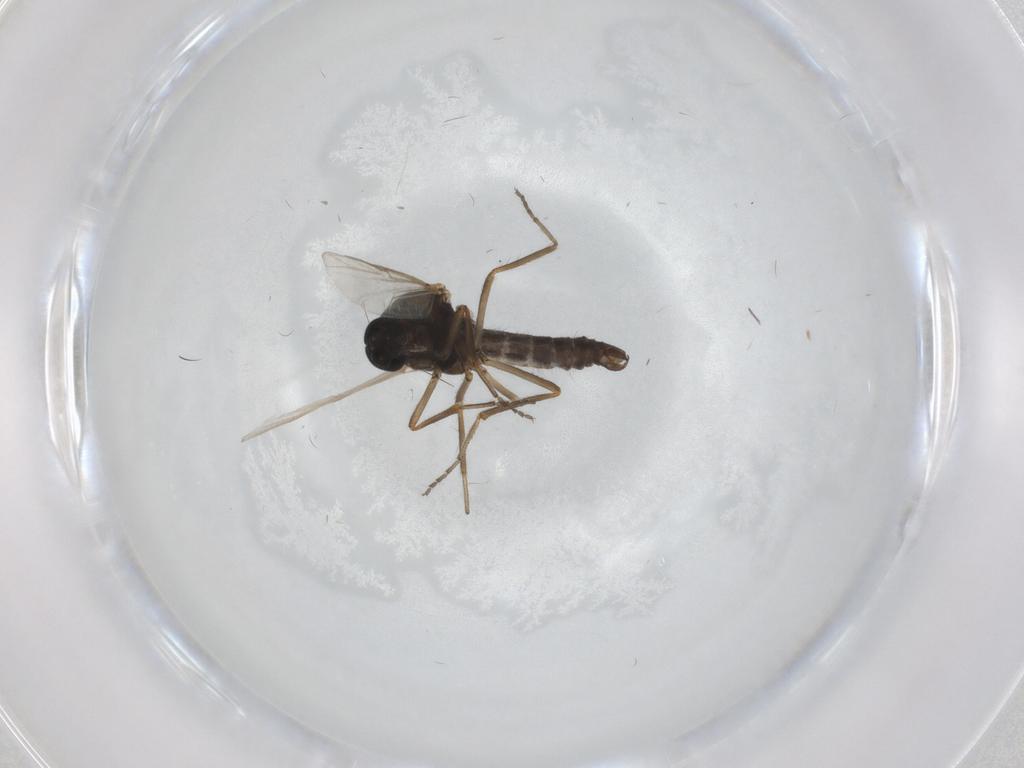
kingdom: Animalia
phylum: Arthropoda
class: Insecta
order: Diptera
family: Ceratopogonidae
